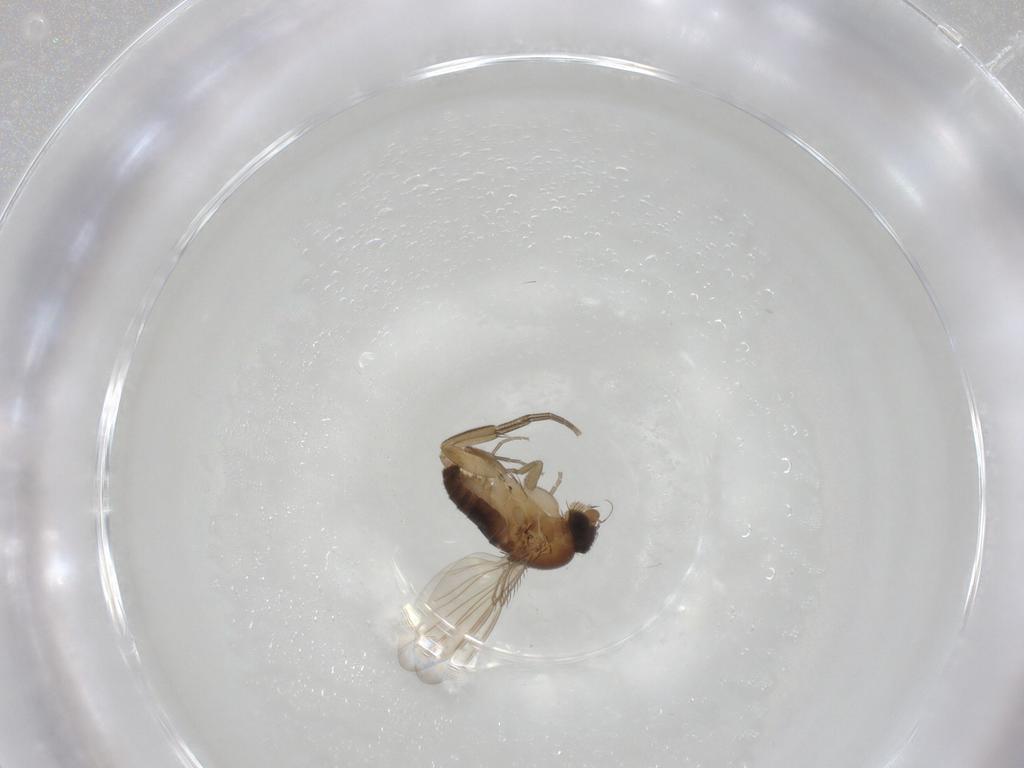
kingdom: Animalia
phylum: Arthropoda
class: Insecta
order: Diptera
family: Phoridae
